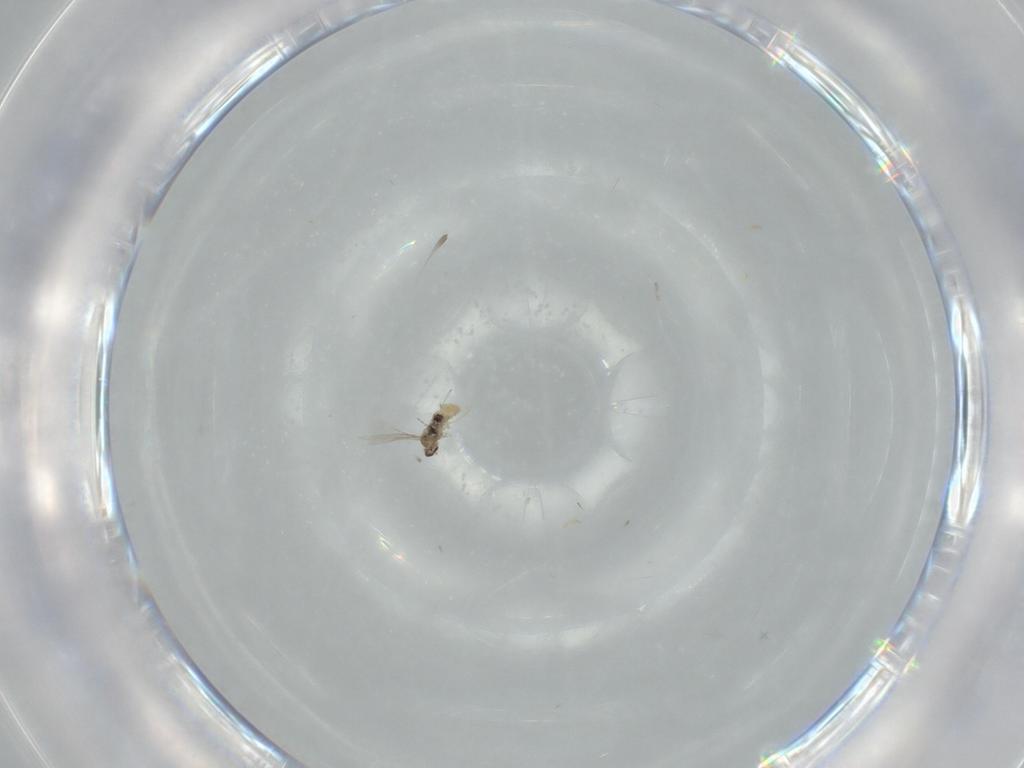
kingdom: Animalia
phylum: Arthropoda
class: Insecta
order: Diptera
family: Cecidomyiidae
